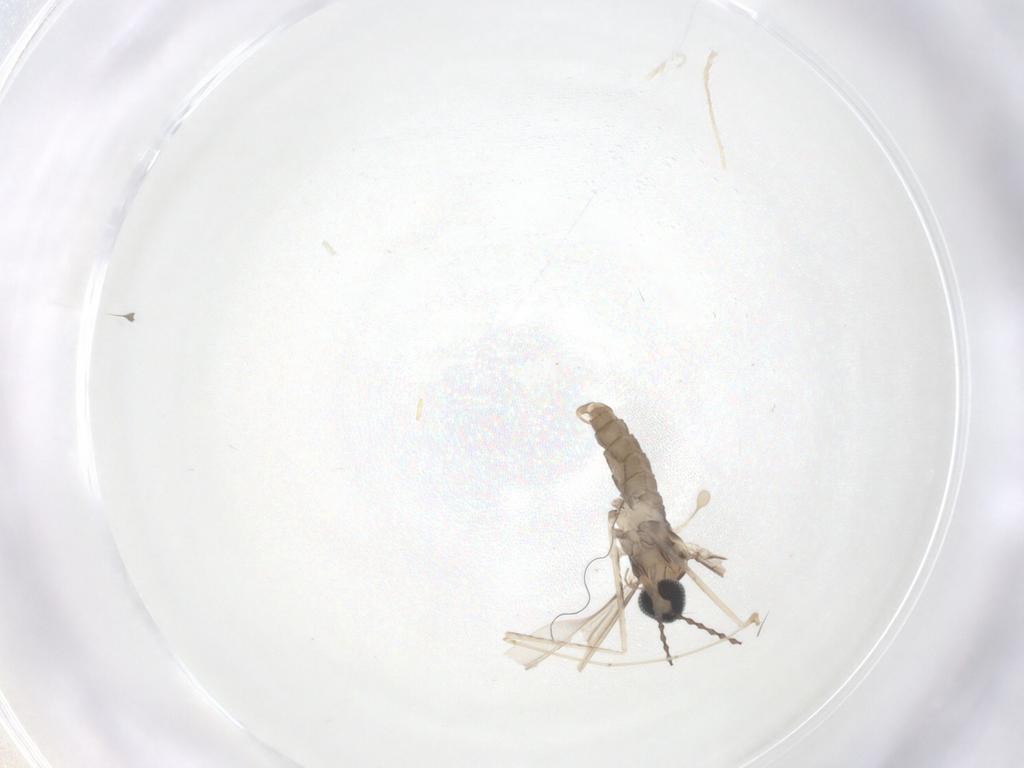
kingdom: Animalia
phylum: Arthropoda
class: Insecta
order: Diptera
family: Cecidomyiidae
